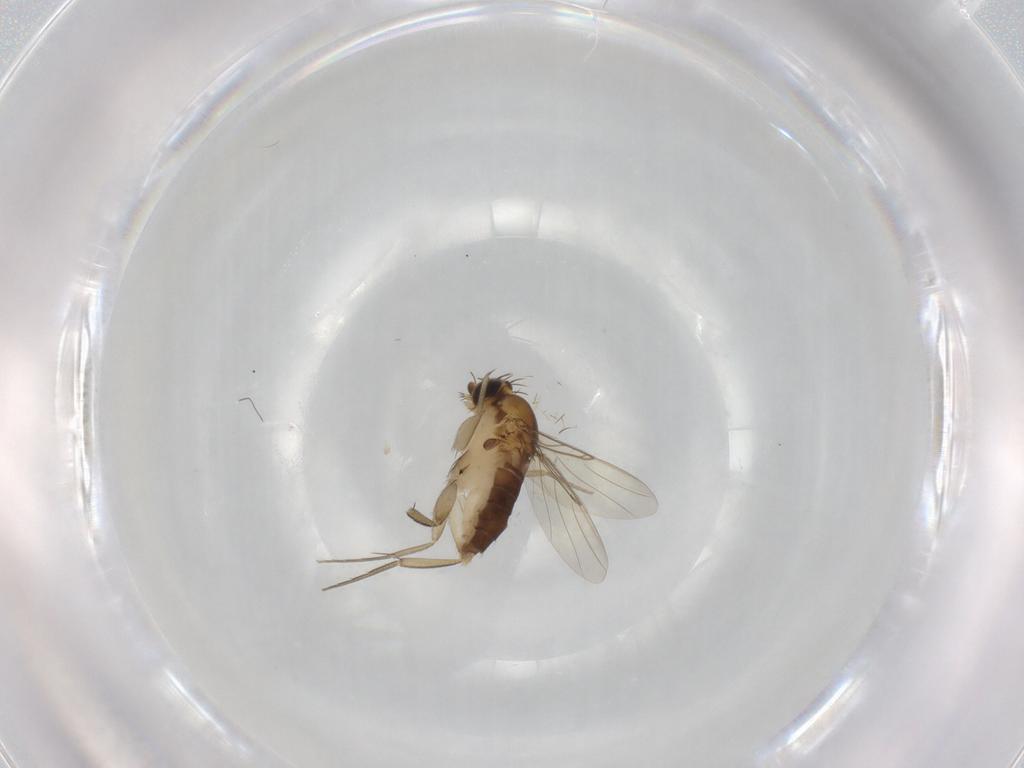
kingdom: Animalia
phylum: Arthropoda
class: Insecta
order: Diptera
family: Phoridae
